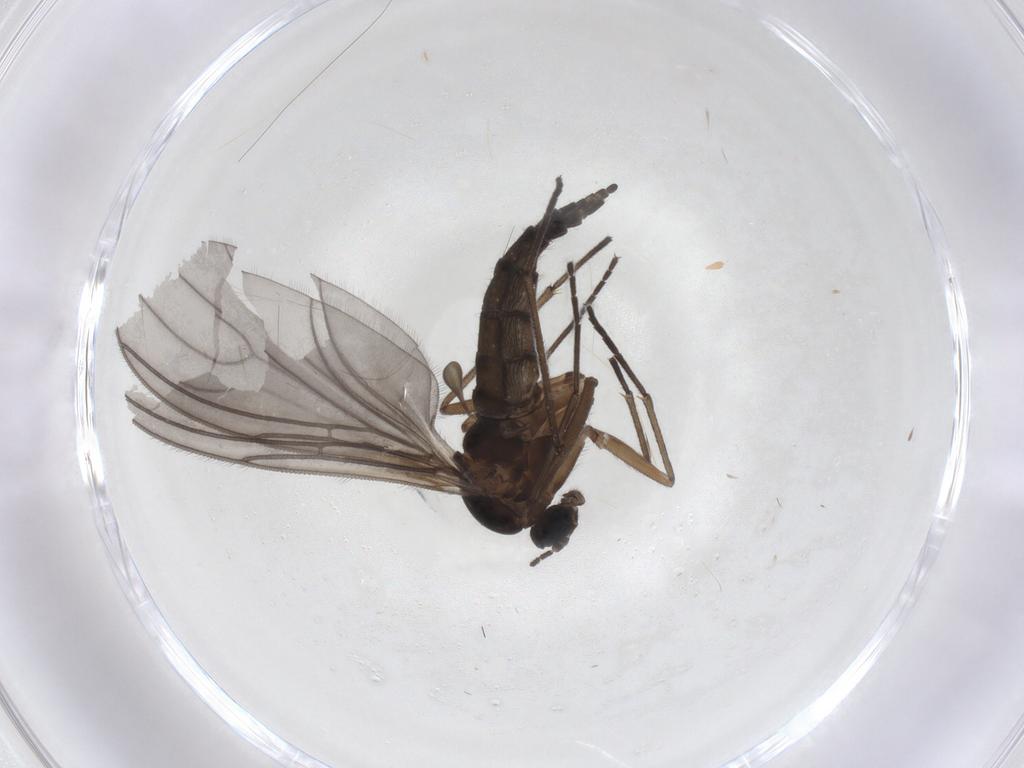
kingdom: Animalia
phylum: Arthropoda
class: Insecta
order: Diptera
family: Sciaridae
